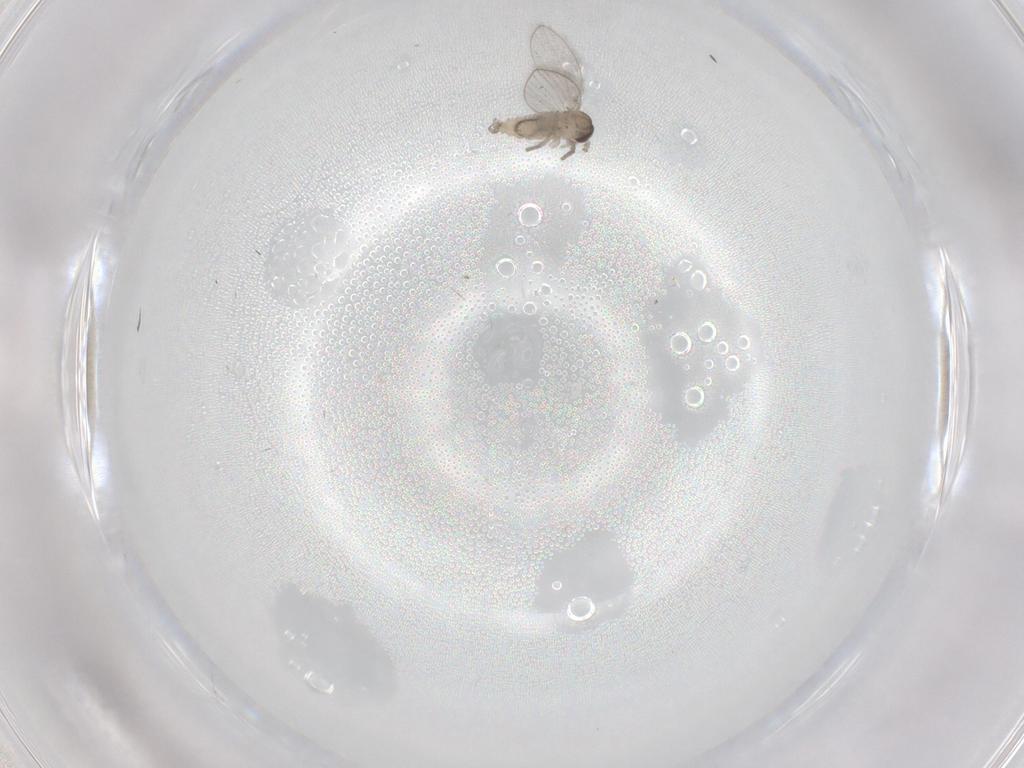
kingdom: Animalia
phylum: Arthropoda
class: Insecta
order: Diptera
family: Psychodidae
